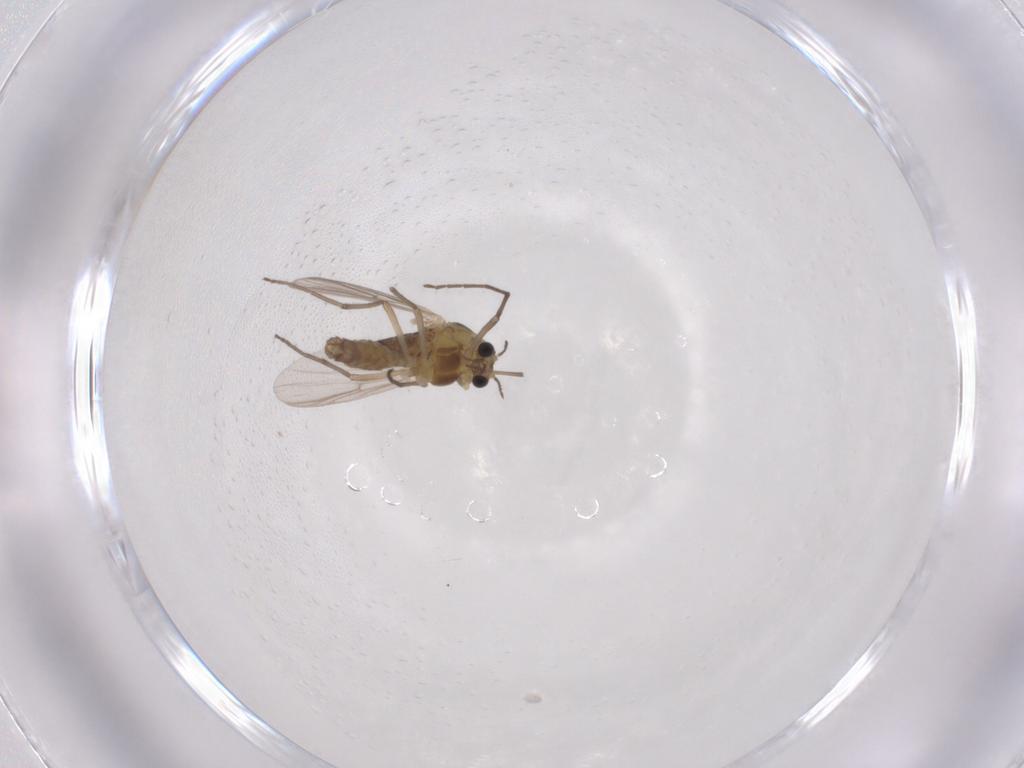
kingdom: Animalia
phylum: Arthropoda
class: Insecta
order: Diptera
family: Chironomidae
